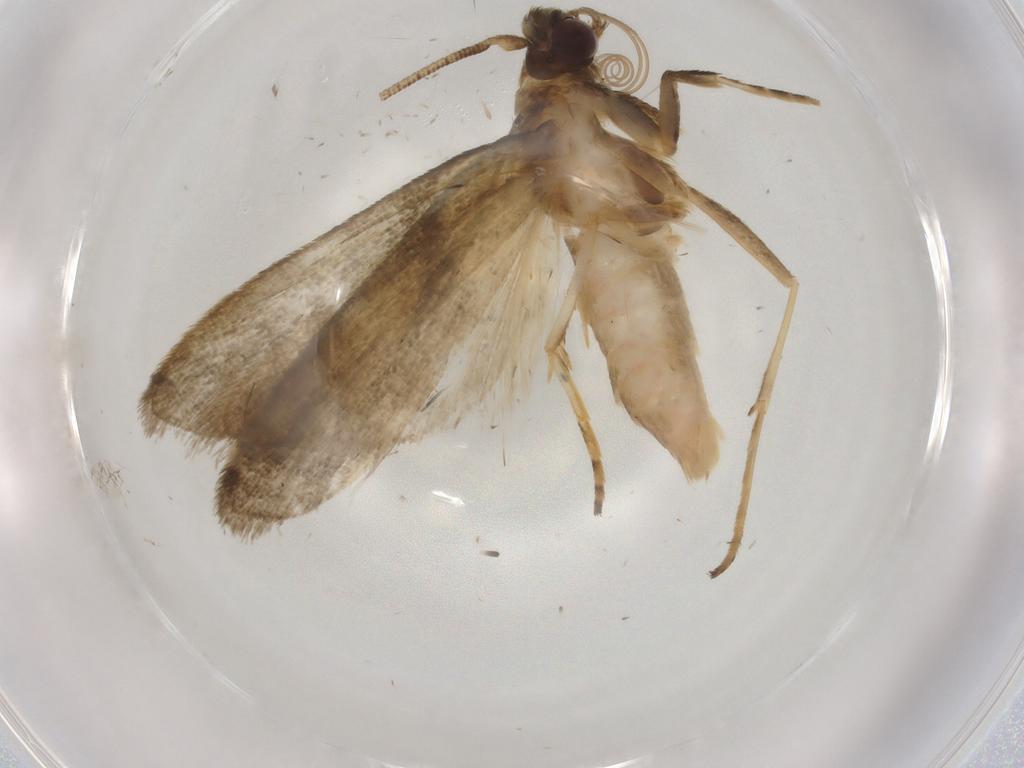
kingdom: Animalia
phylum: Arthropoda
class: Insecta
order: Lepidoptera
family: Noctuidae
